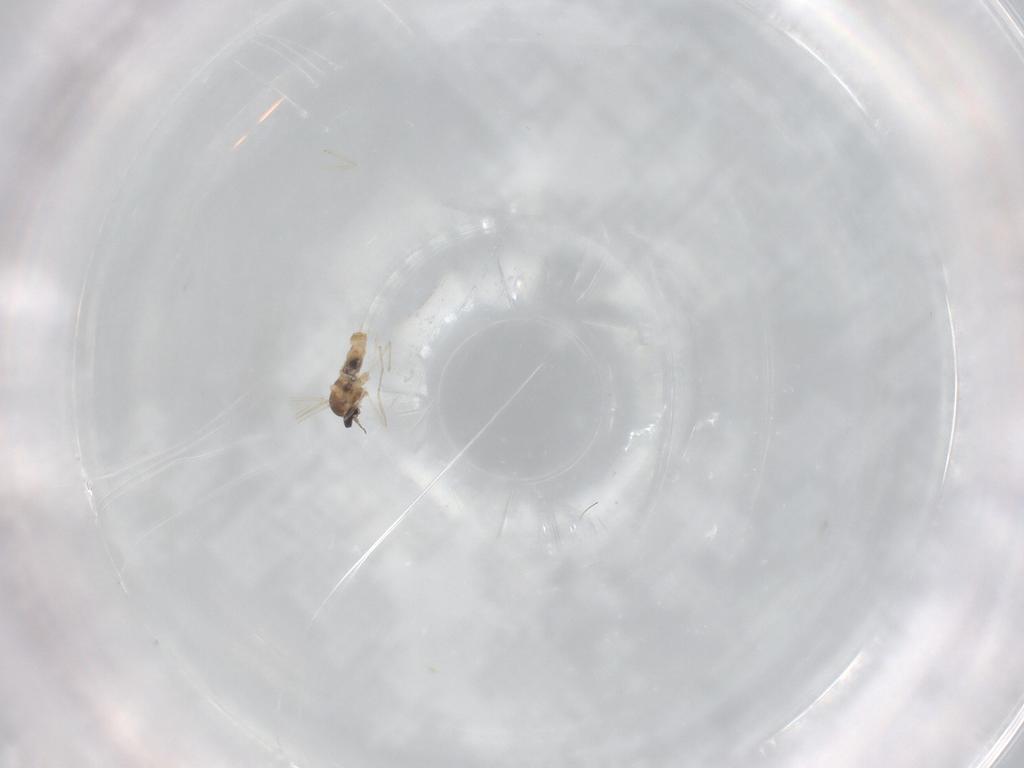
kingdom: Animalia
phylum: Arthropoda
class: Insecta
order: Diptera
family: Cecidomyiidae
